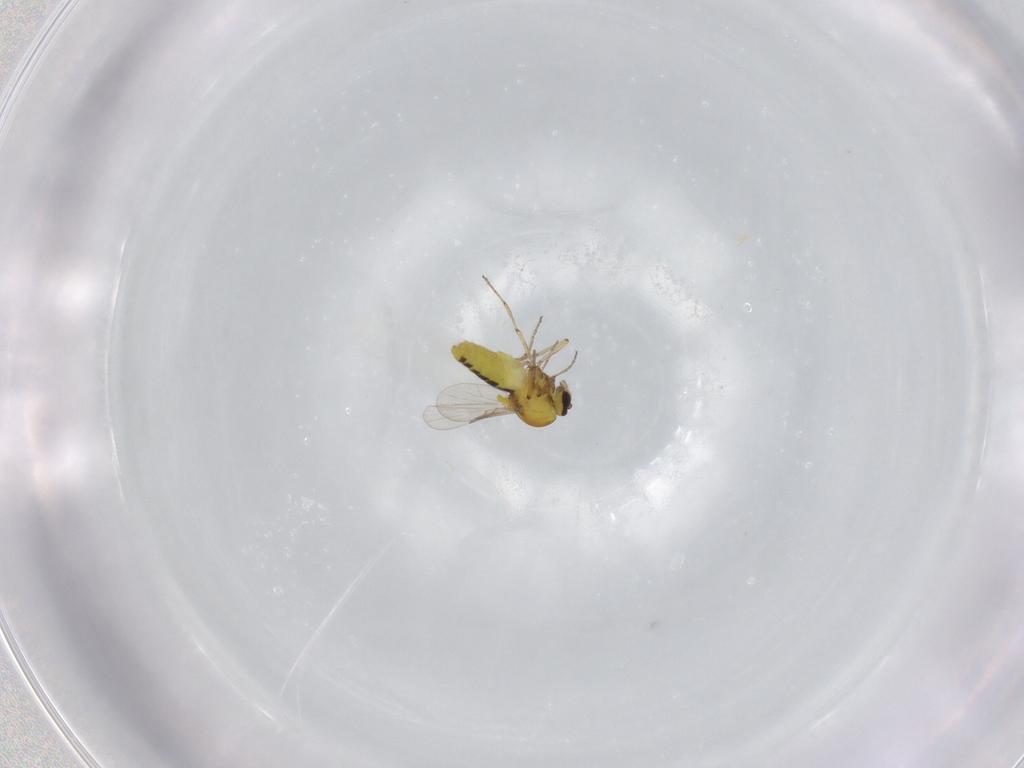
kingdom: Animalia
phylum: Arthropoda
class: Insecta
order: Diptera
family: Ceratopogonidae
